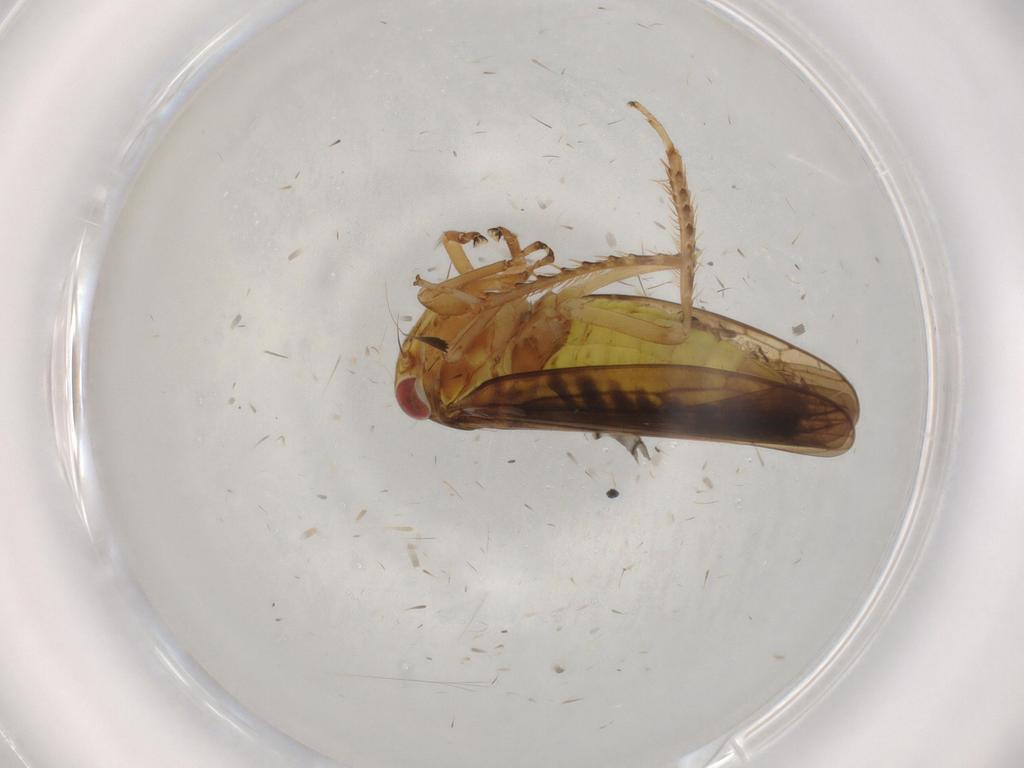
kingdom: Animalia
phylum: Arthropoda
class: Insecta
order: Hemiptera
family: Cicadellidae
